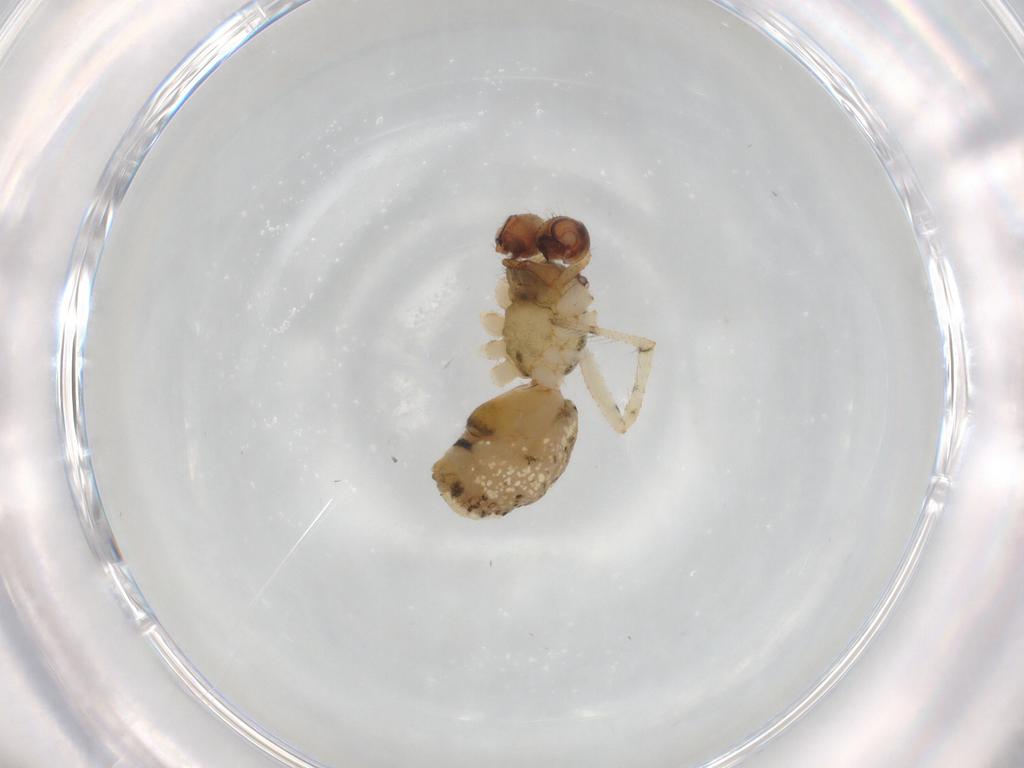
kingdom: Animalia
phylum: Arthropoda
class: Arachnida
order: Araneae
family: Theridiidae
